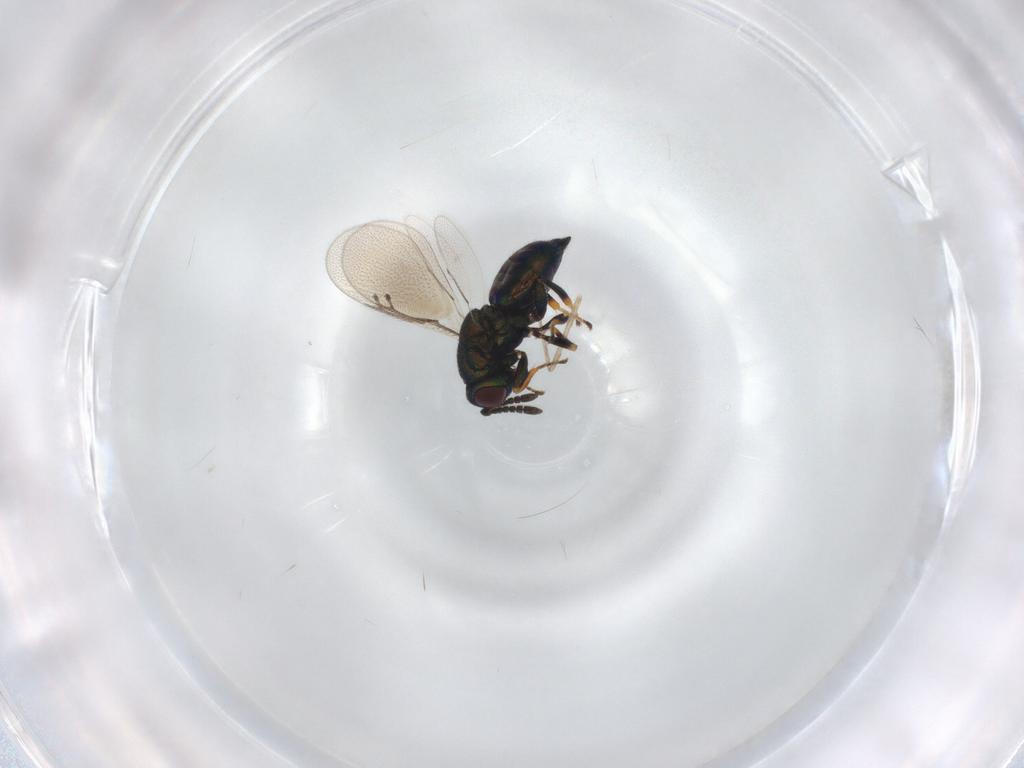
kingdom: Animalia
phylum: Arthropoda
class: Insecta
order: Hymenoptera
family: Pteromalidae
